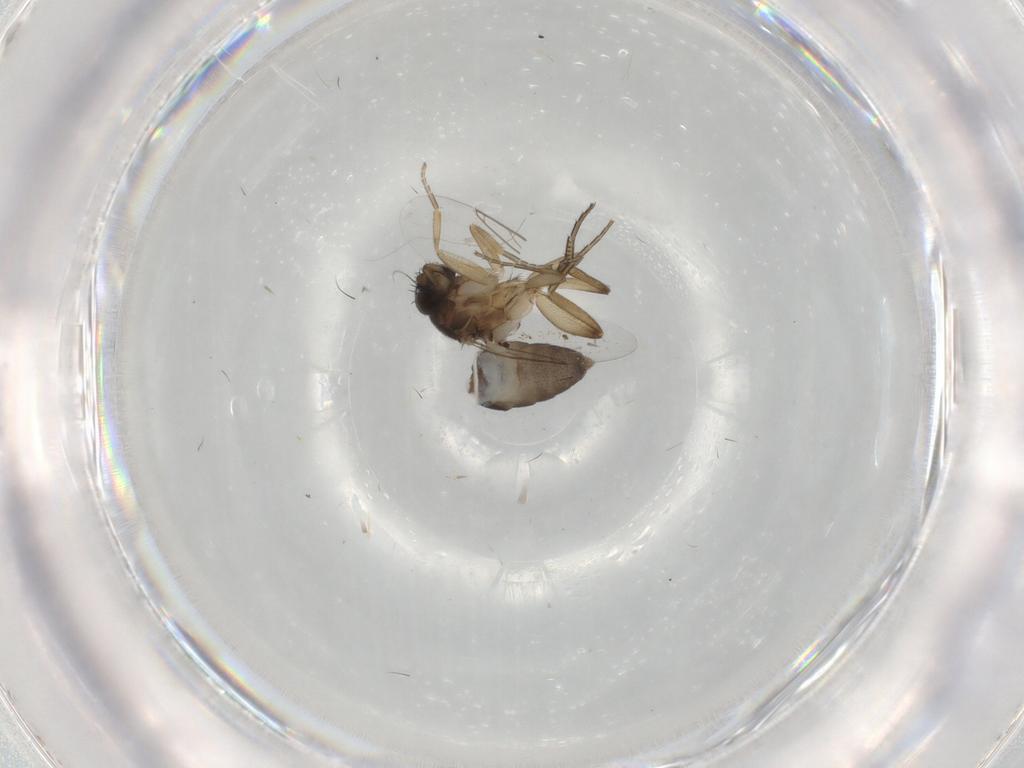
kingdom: Animalia
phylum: Arthropoda
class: Insecta
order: Diptera
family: Phoridae
